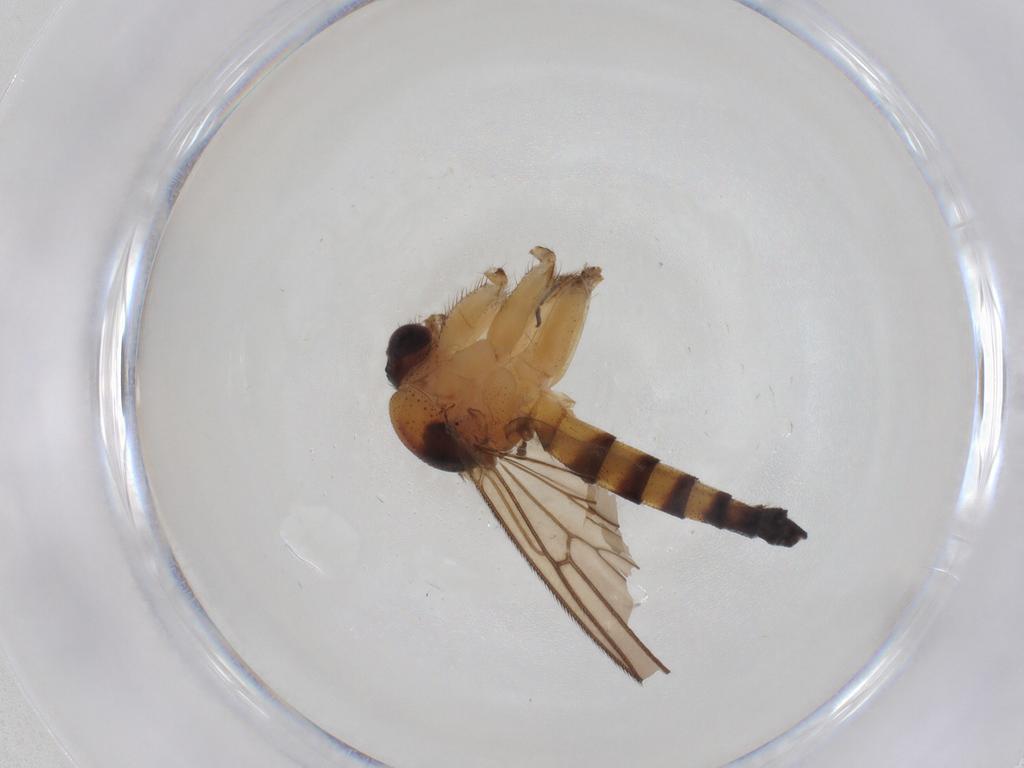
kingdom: Animalia
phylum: Arthropoda
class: Insecta
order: Diptera
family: Mycetophilidae
